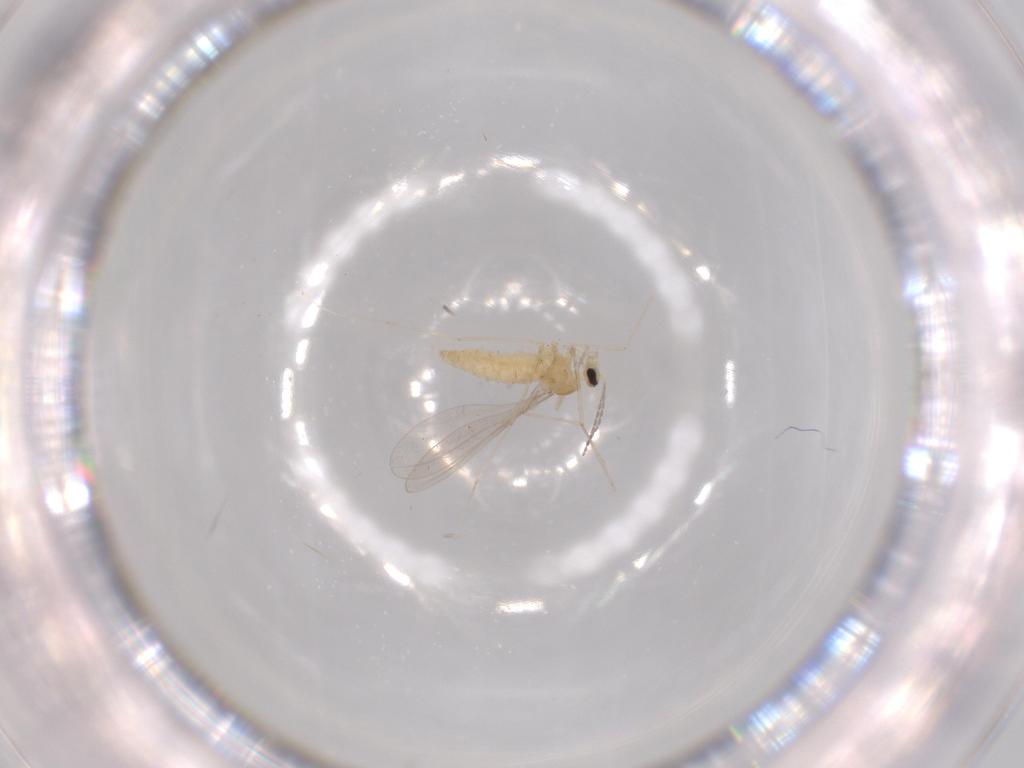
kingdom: Animalia
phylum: Arthropoda
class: Insecta
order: Diptera
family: Cecidomyiidae
